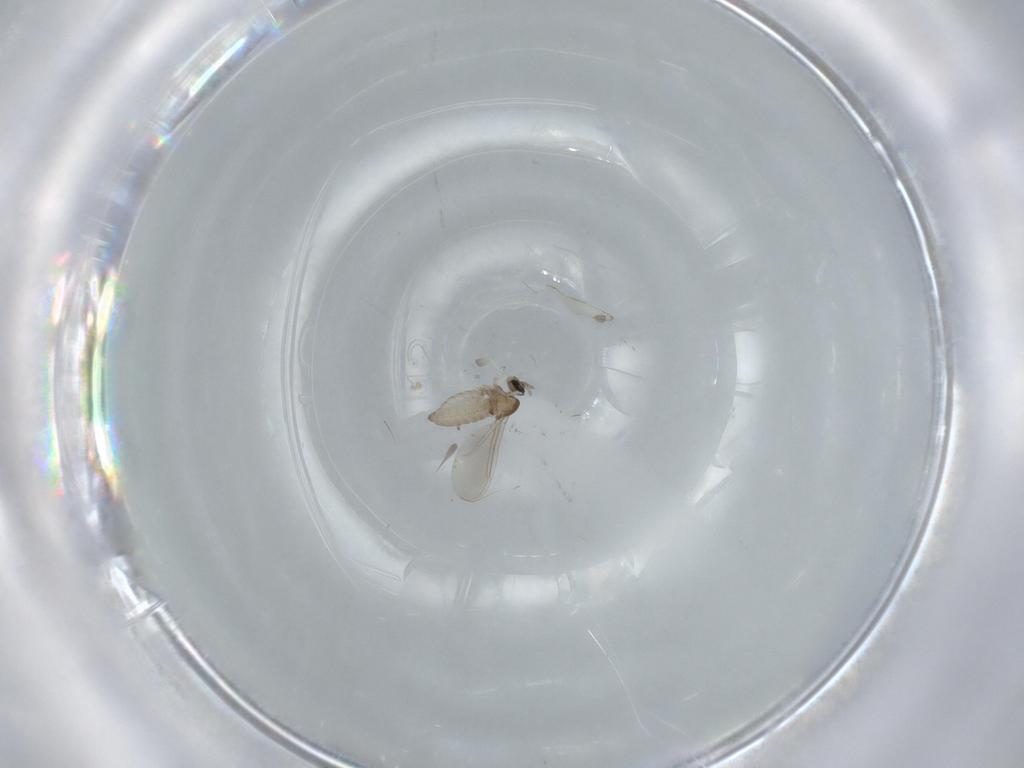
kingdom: Animalia
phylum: Arthropoda
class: Insecta
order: Diptera
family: Cecidomyiidae
